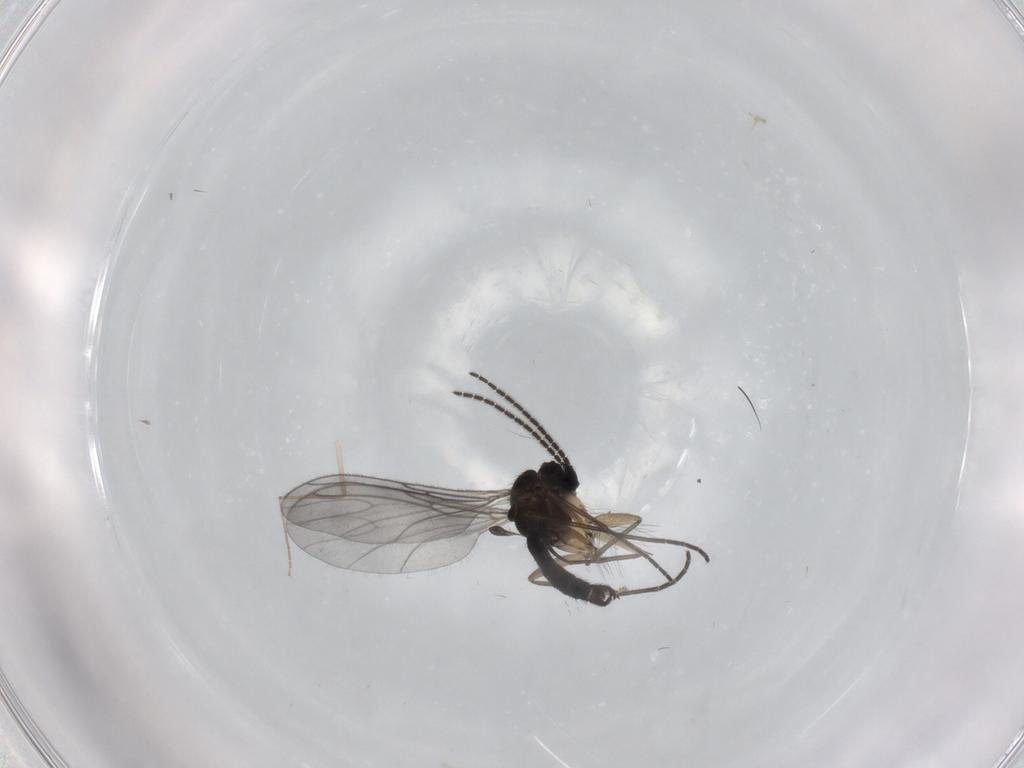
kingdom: Animalia
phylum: Arthropoda
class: Insecta
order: Diptera
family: Sciaridae
